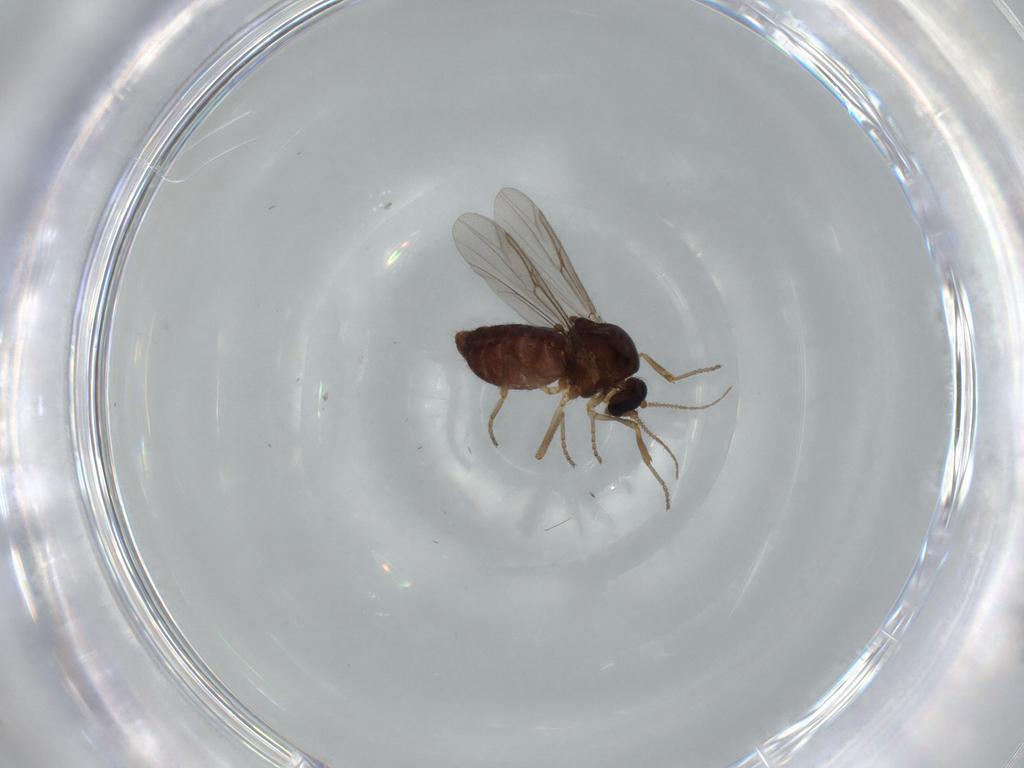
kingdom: Animalia
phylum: Arthropoda
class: Insecta
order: Diptera
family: Ceratopogonidae
